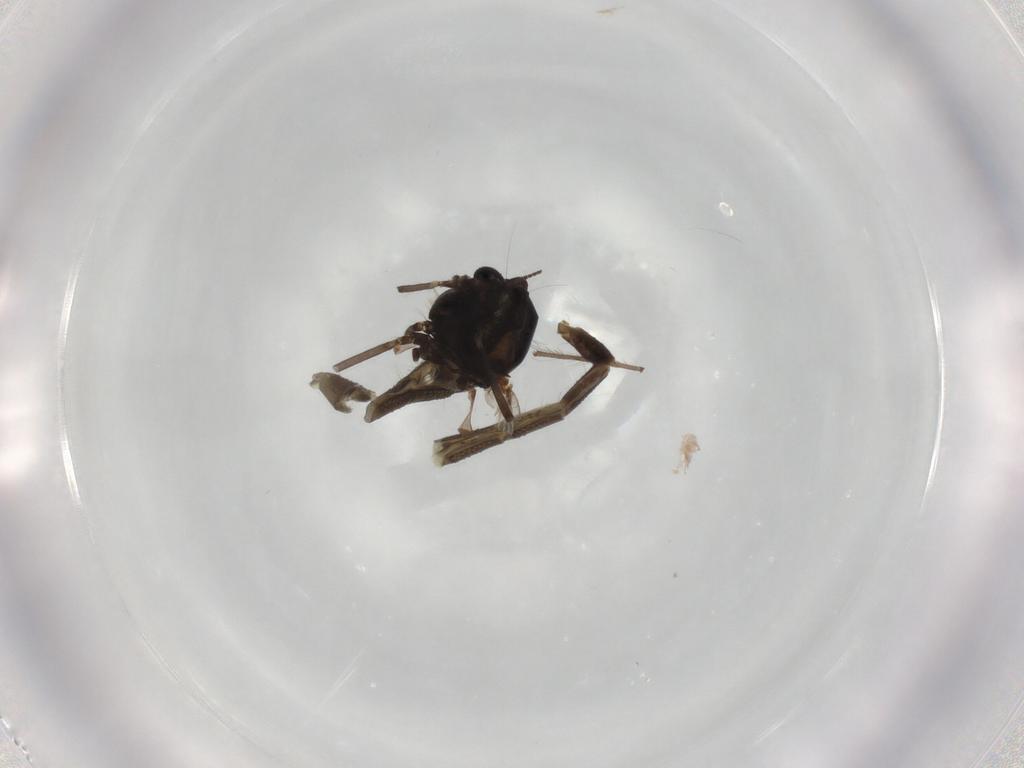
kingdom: Animalia
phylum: Arthropoda
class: Insecta
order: Diptera
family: Chironomidae
